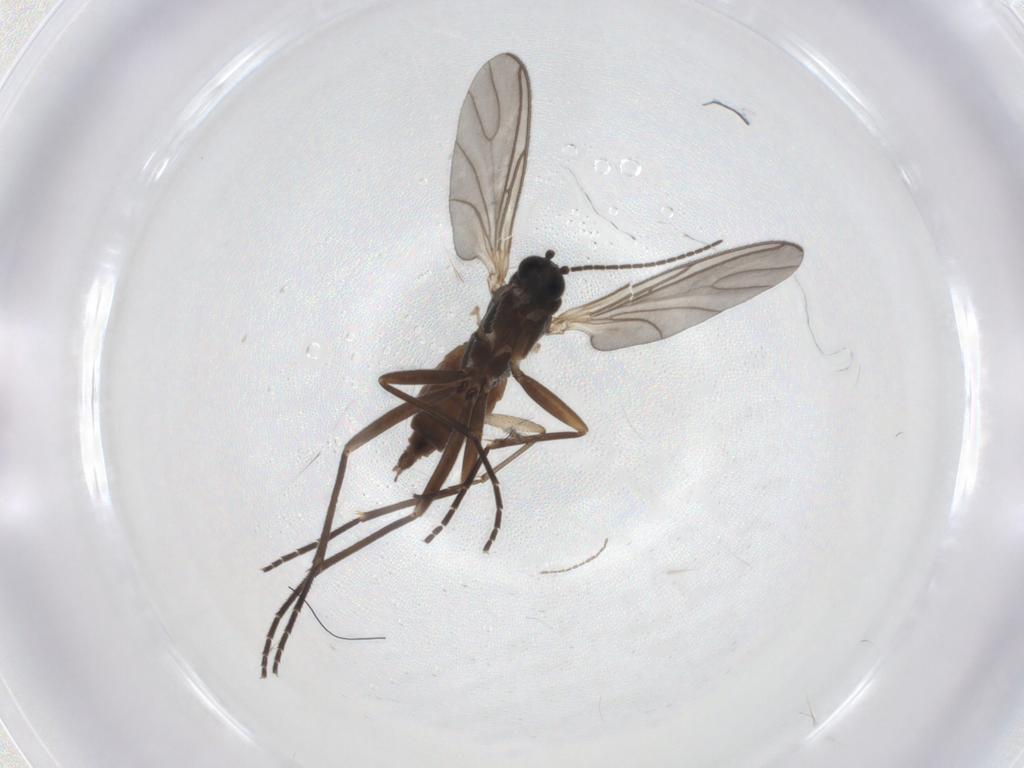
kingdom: Animalia
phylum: Arthropoda
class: Insecta
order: Diptera
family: Sciaridae
